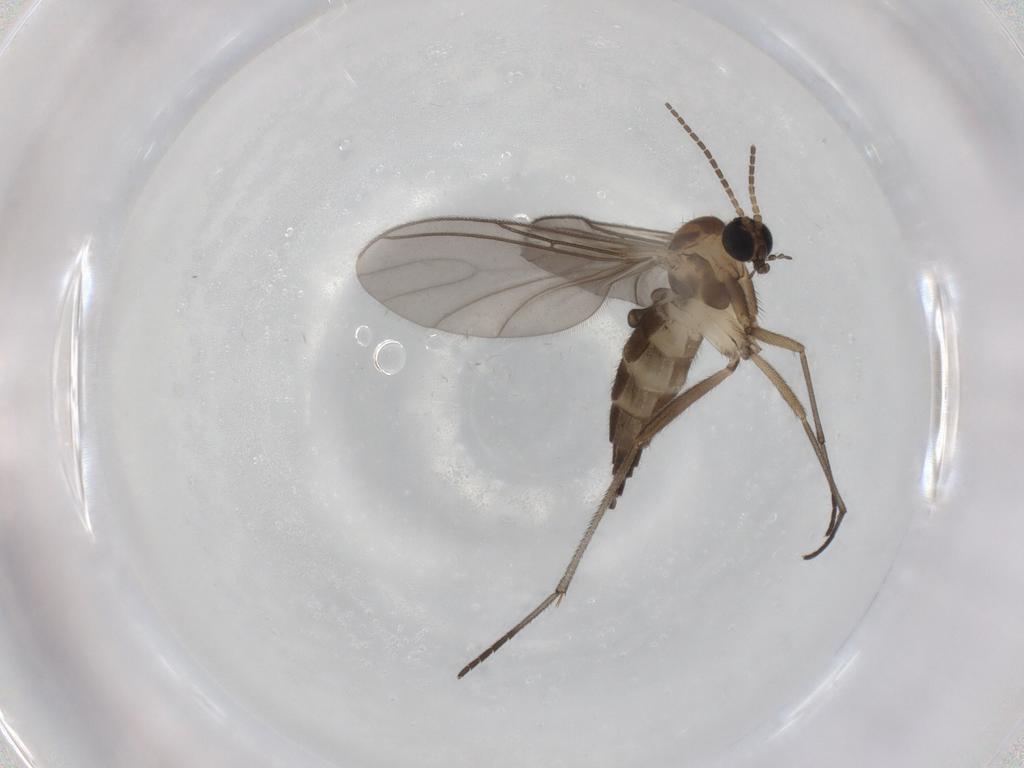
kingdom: Animalia
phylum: Arthropoda
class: Insecta
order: Diptera
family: Sciaridae
